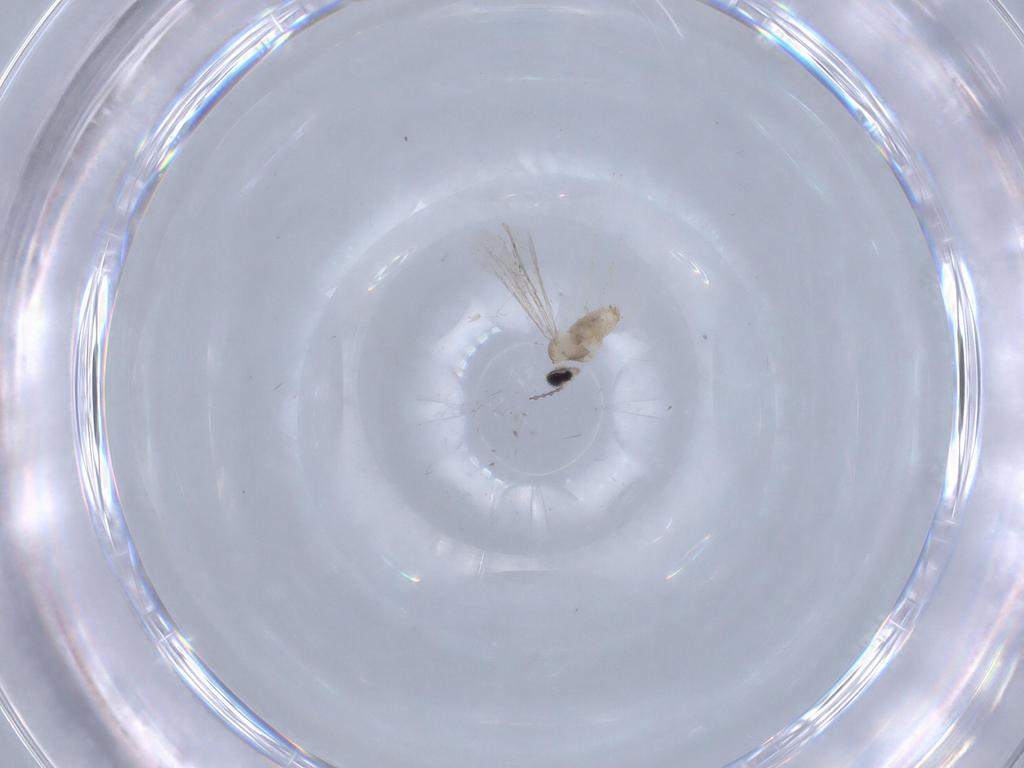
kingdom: Animalia
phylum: Arthropoda
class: Insecta
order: Diptera
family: Cecidomyiidae
